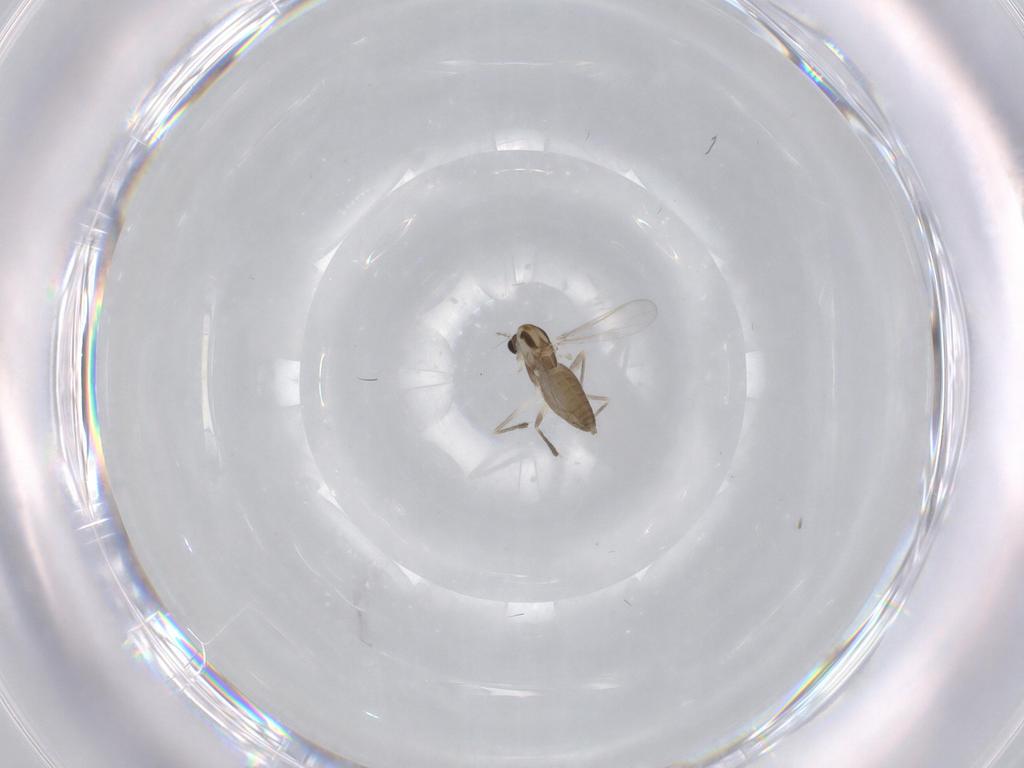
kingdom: Animalia
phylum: Arthropoda
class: Insecta
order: Diptera
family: Chironomidae
